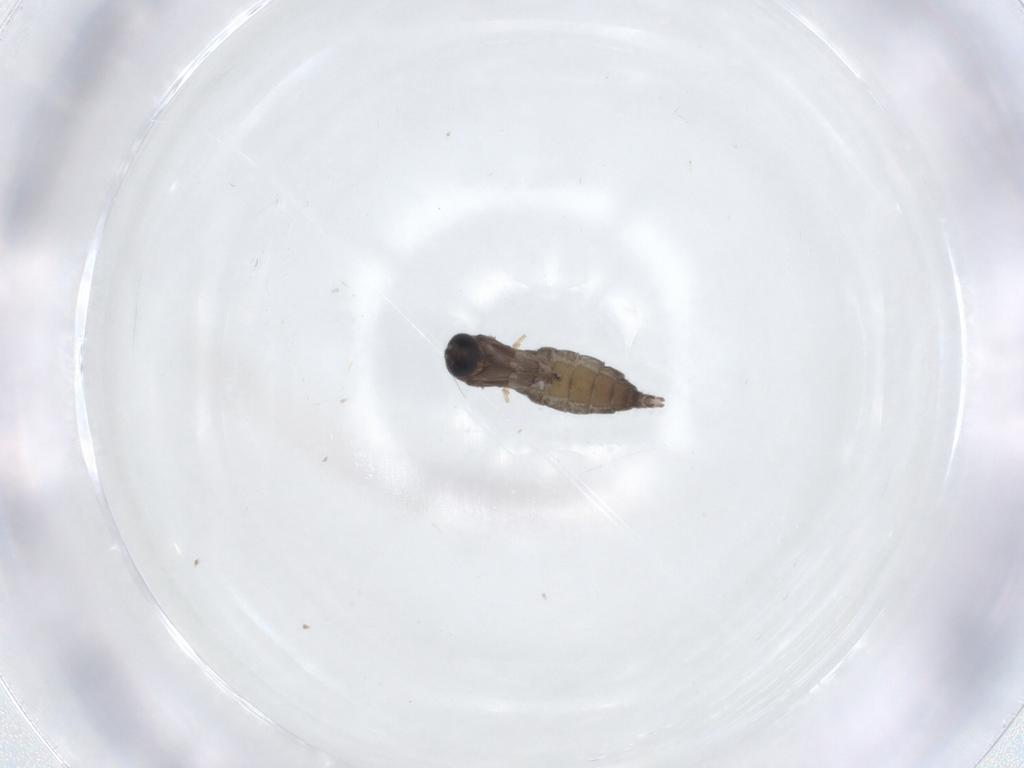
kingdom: Animalia
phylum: Arthropoda
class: Insecta
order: Diptera
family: Sciaridae
